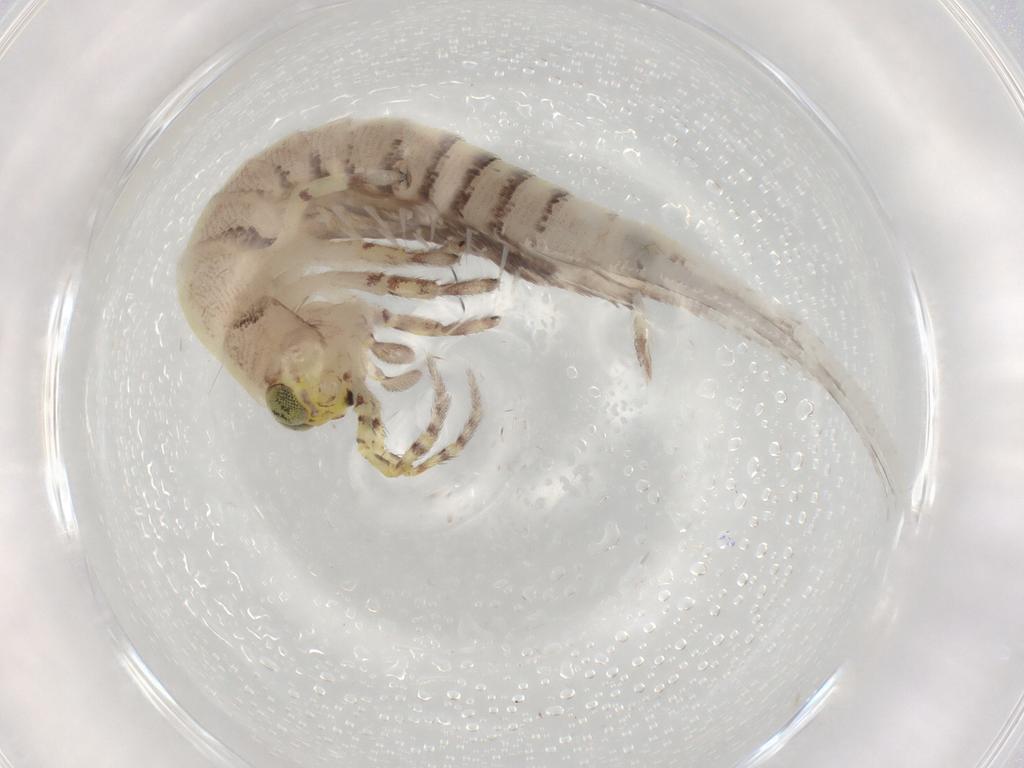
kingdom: Animalia
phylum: Arthropoda
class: Insecta
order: Archaeognatha
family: Machilidae
